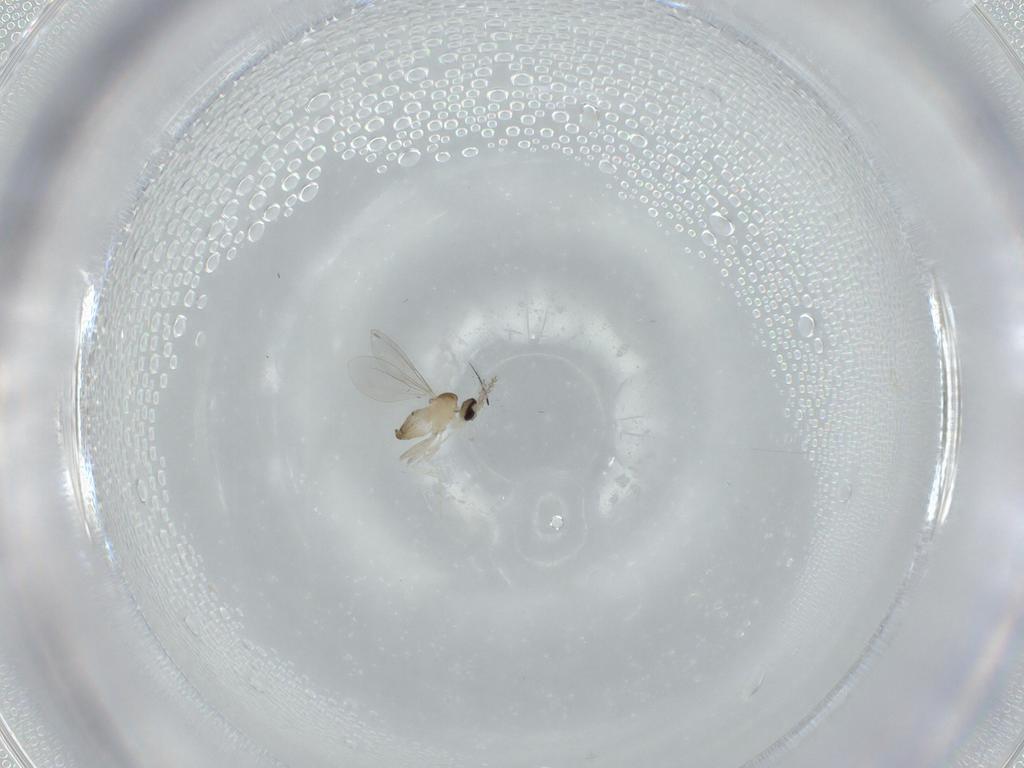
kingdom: Animalia
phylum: Arthropoda
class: Insecta
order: Diptera
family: Cecidomyiidae
